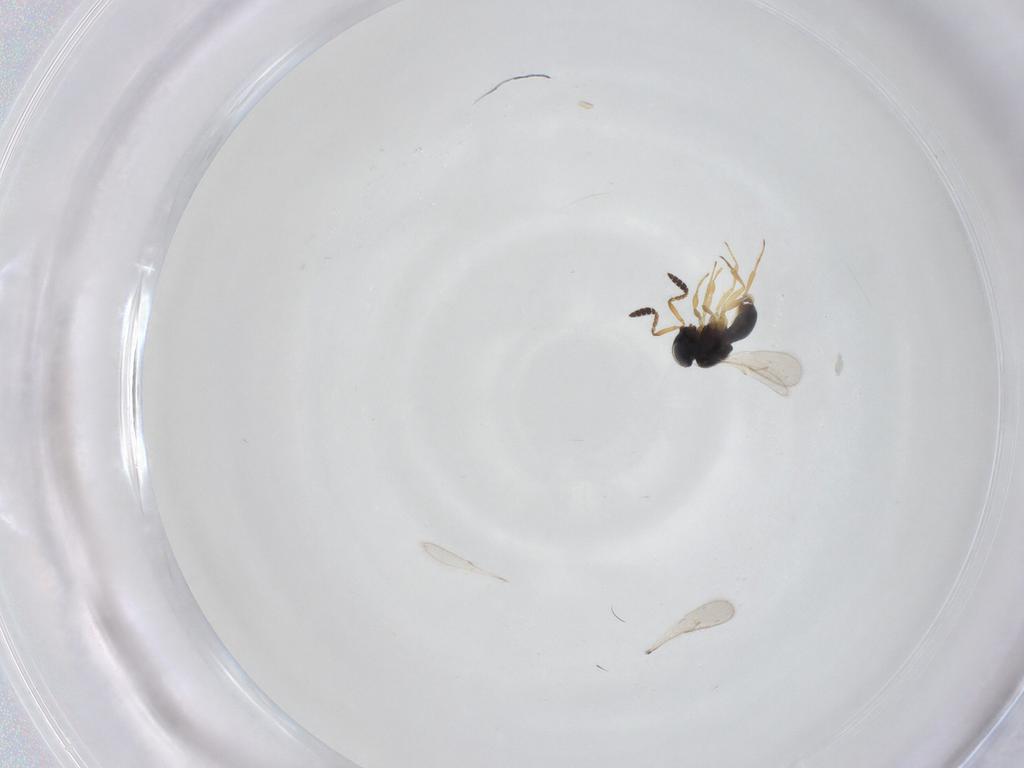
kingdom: Animalia
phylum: Arthropoda
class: Insecta
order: Hymenoptera
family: Scelionidae
